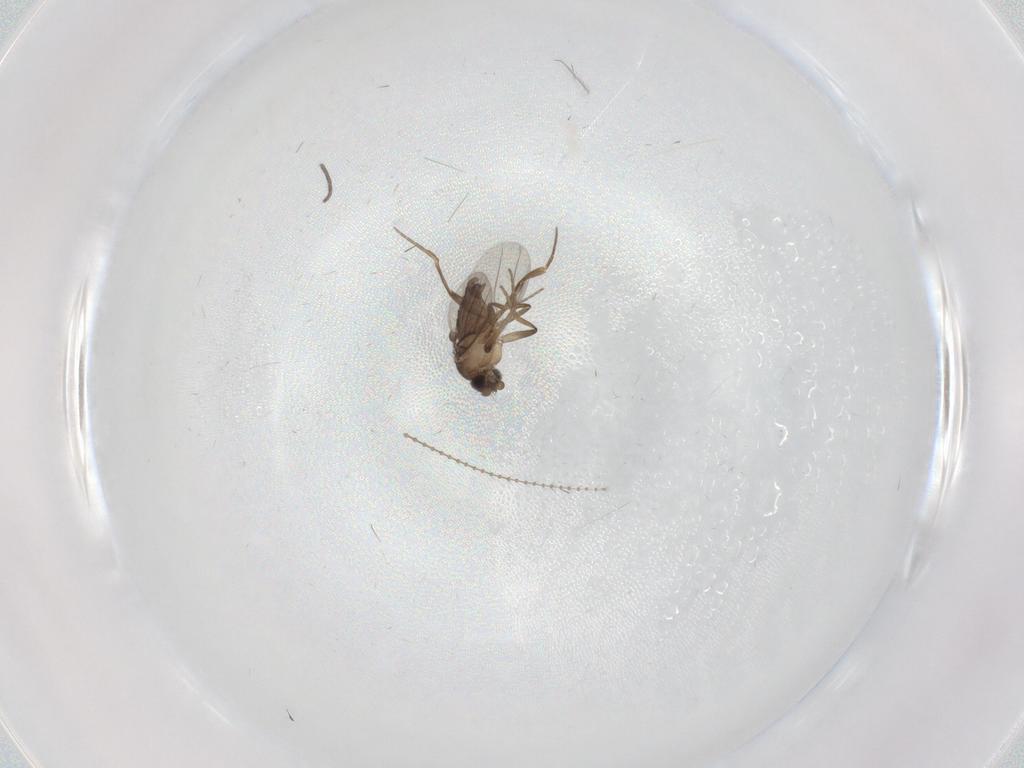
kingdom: Animalia
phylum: Arthropoda
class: Insecta
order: Diptera
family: Cecidomyiidae
